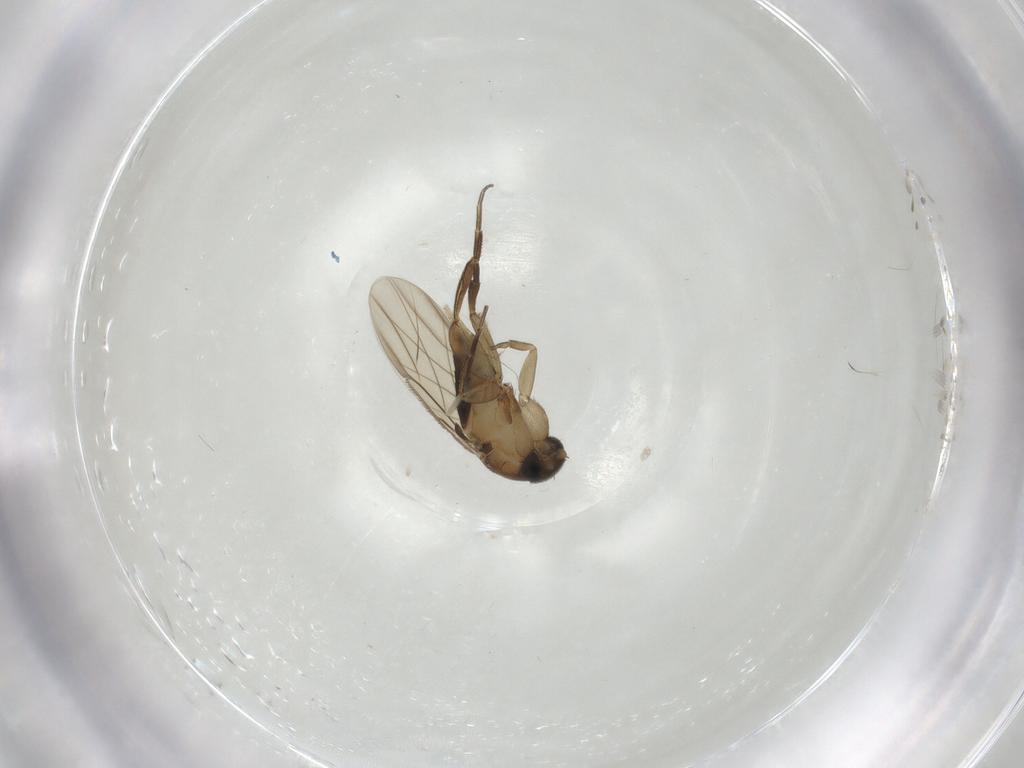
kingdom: Animalia
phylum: Arthropoda
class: Insecta
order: Diptera
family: Phoridae
